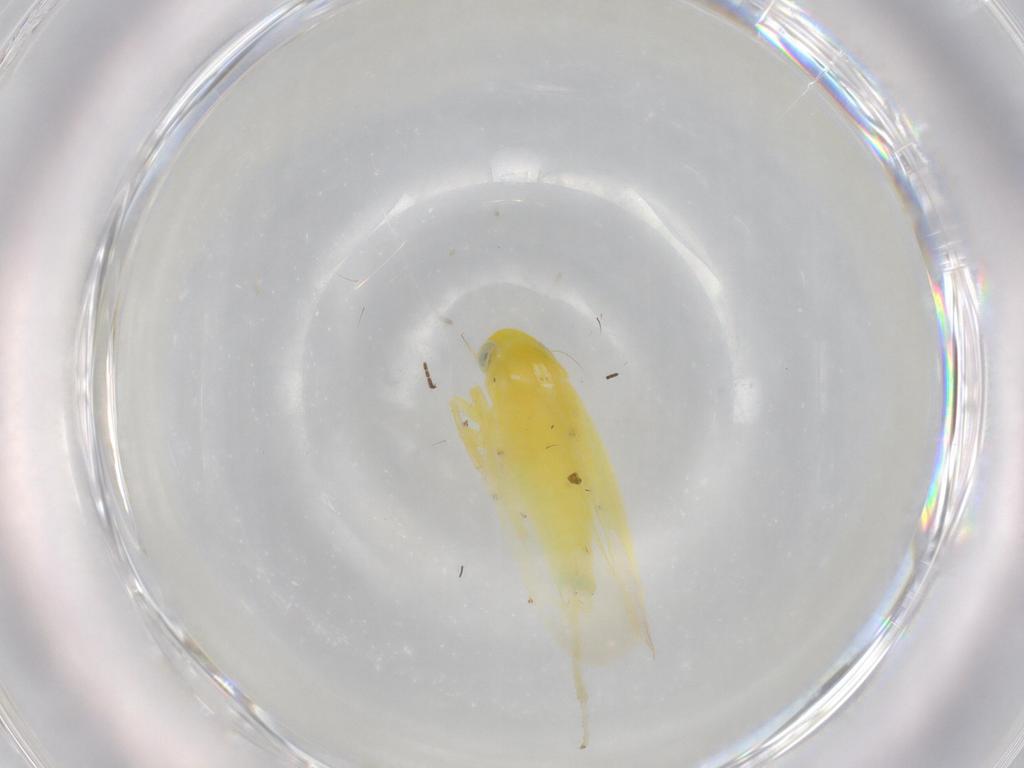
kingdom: Animalia
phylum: Arthropoda
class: Insecta
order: Hemiptera
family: Cicadellidae
